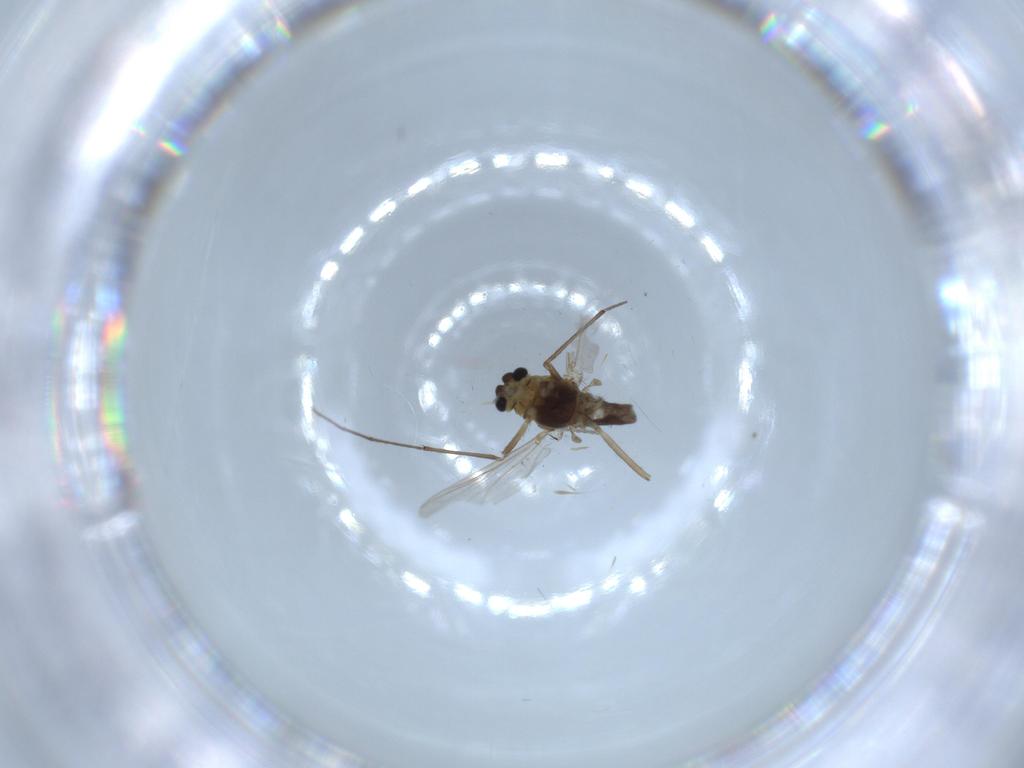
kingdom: Animalia
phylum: Arthropoda
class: Insecta
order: Diptera
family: Chironomidae
